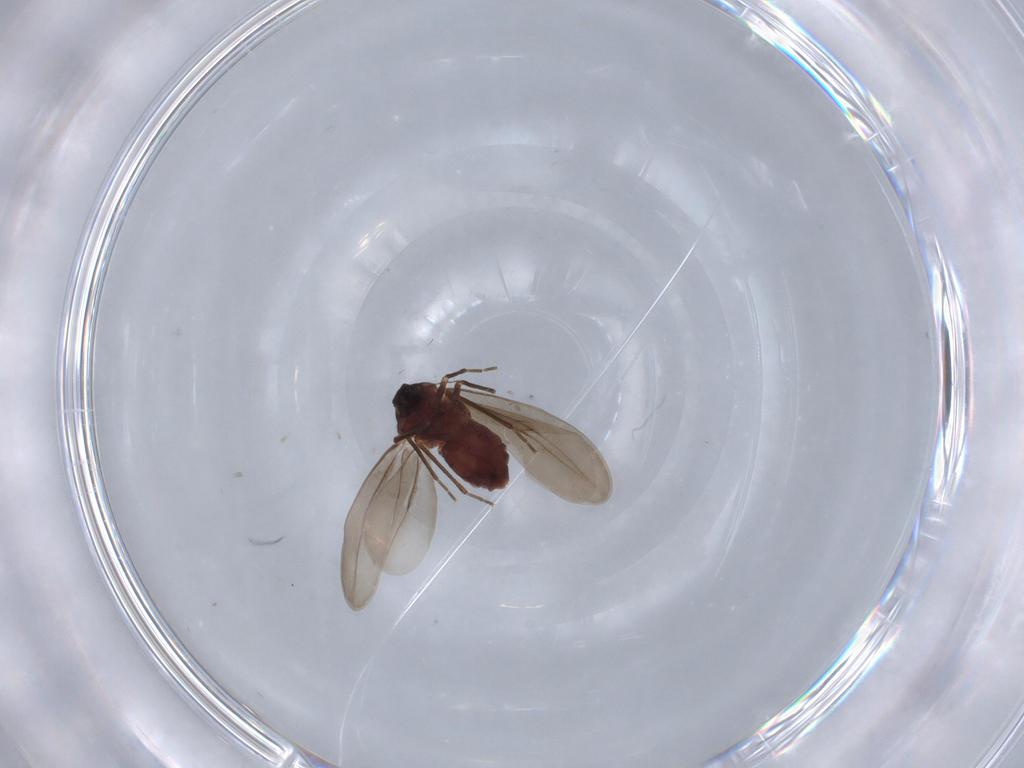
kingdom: Animalia
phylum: Arthropoda
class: Insecta
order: Hemiptera
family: Aleyrodidae
